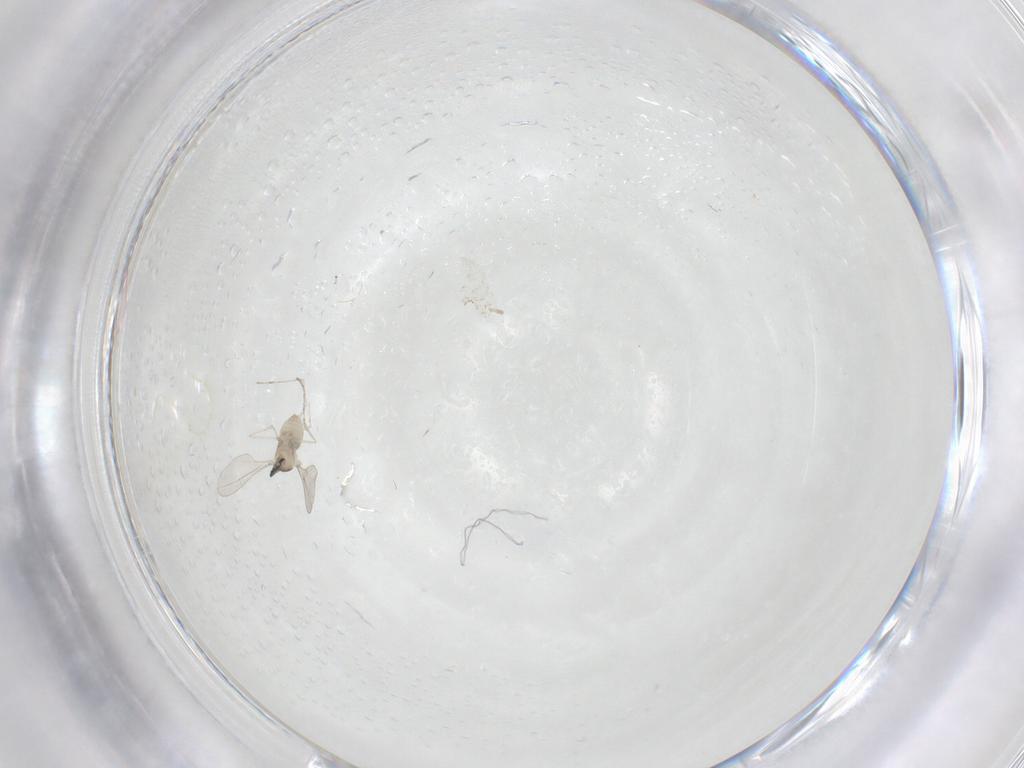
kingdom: Animalia
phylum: Arthropoda
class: Insecta
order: Diptera
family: Cecidomyiidae
